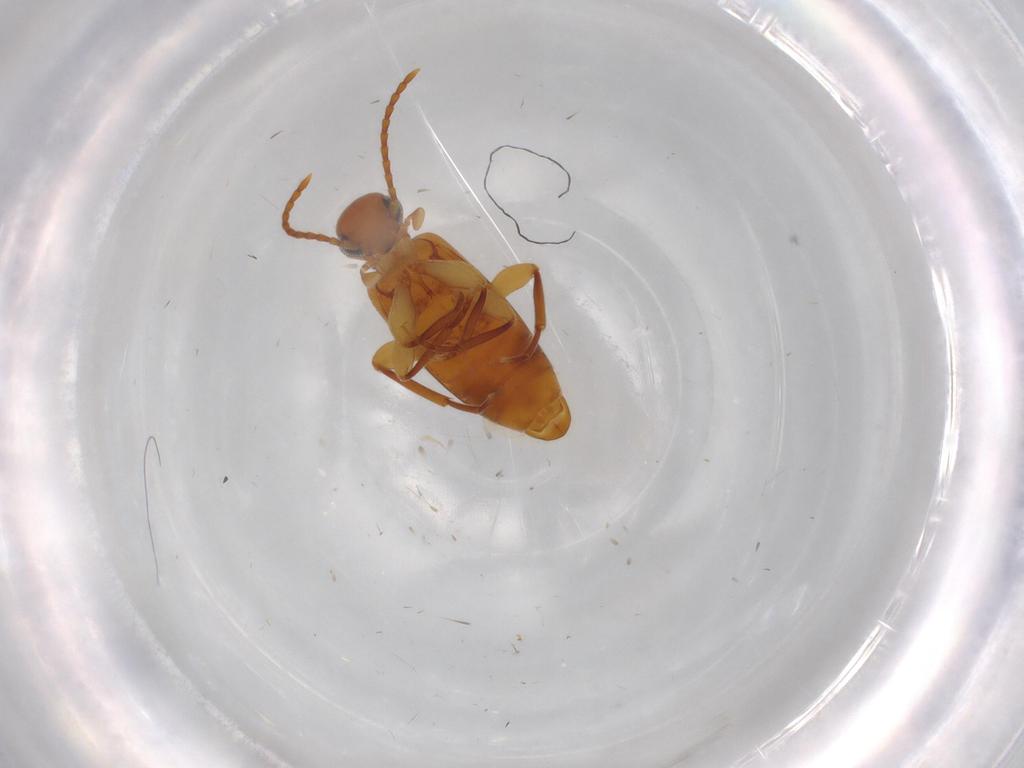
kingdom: Animalia
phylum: Arthropoda
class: Insecta
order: Coleoptera
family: Anthicidae
